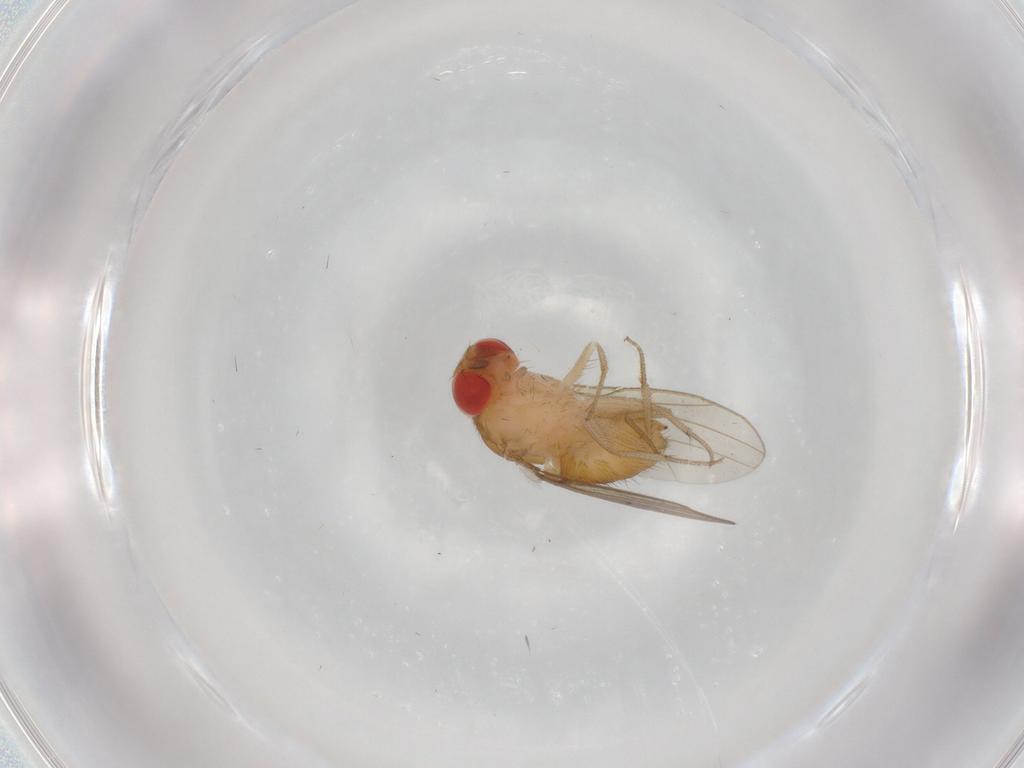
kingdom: Animalia
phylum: Arthropoda
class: Insecta
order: Diptera
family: Drosophilidae
